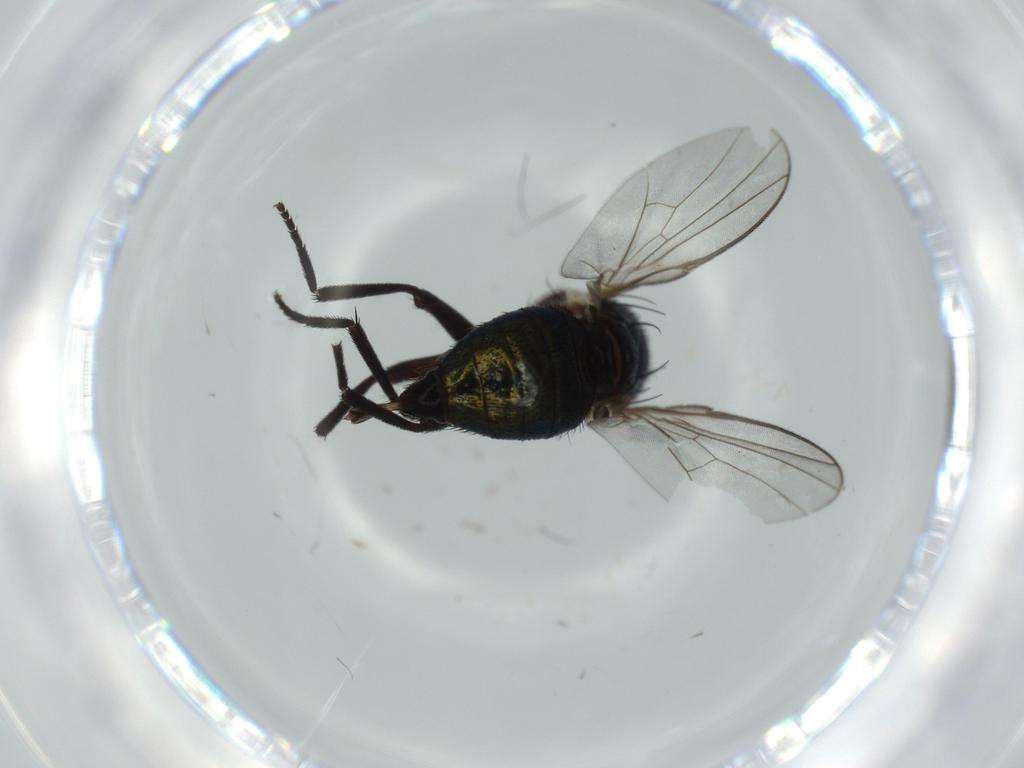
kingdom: Animalia
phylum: Arthropoda
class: Insecta
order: Diptera
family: Agromyzidae
